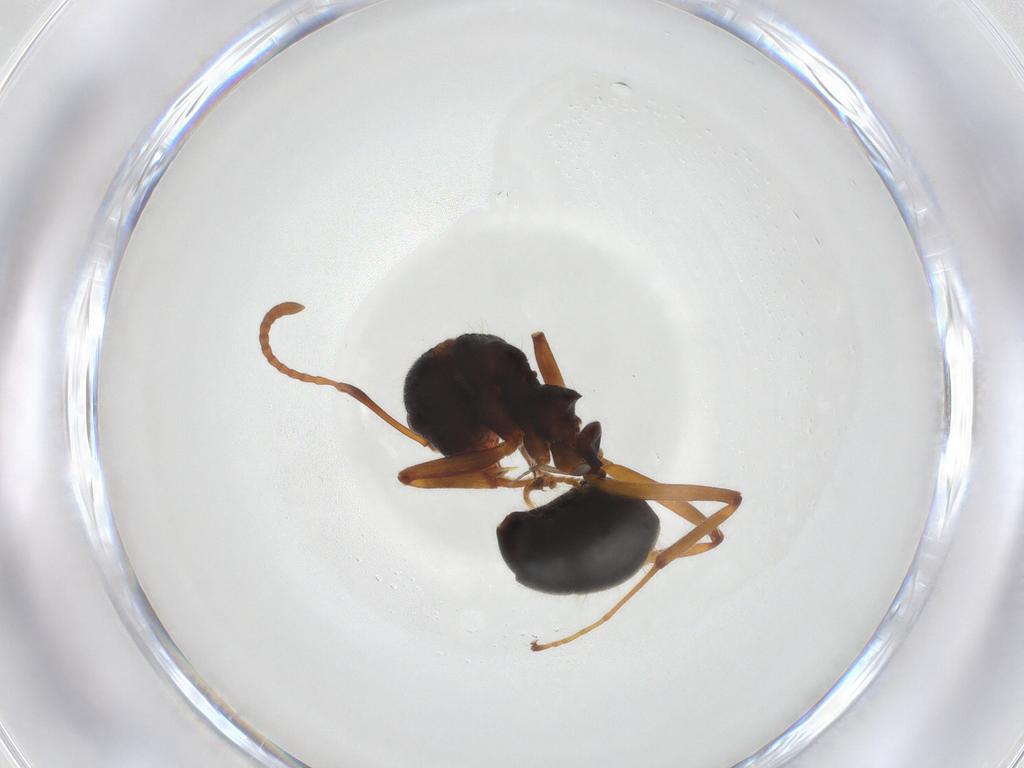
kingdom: Animalia
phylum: Arthropoda
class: Insecta
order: Hymenoptera
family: Formicidae
